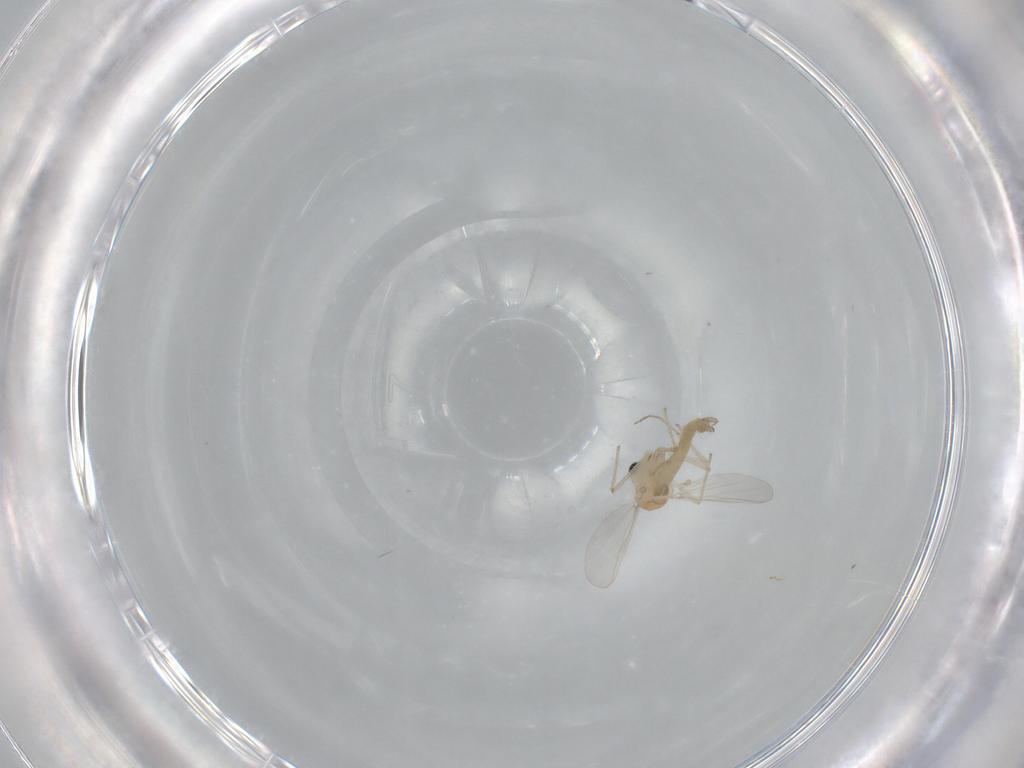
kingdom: Animalia
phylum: Arthropoda
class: Insecta
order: Diptera
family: Chironomidae
